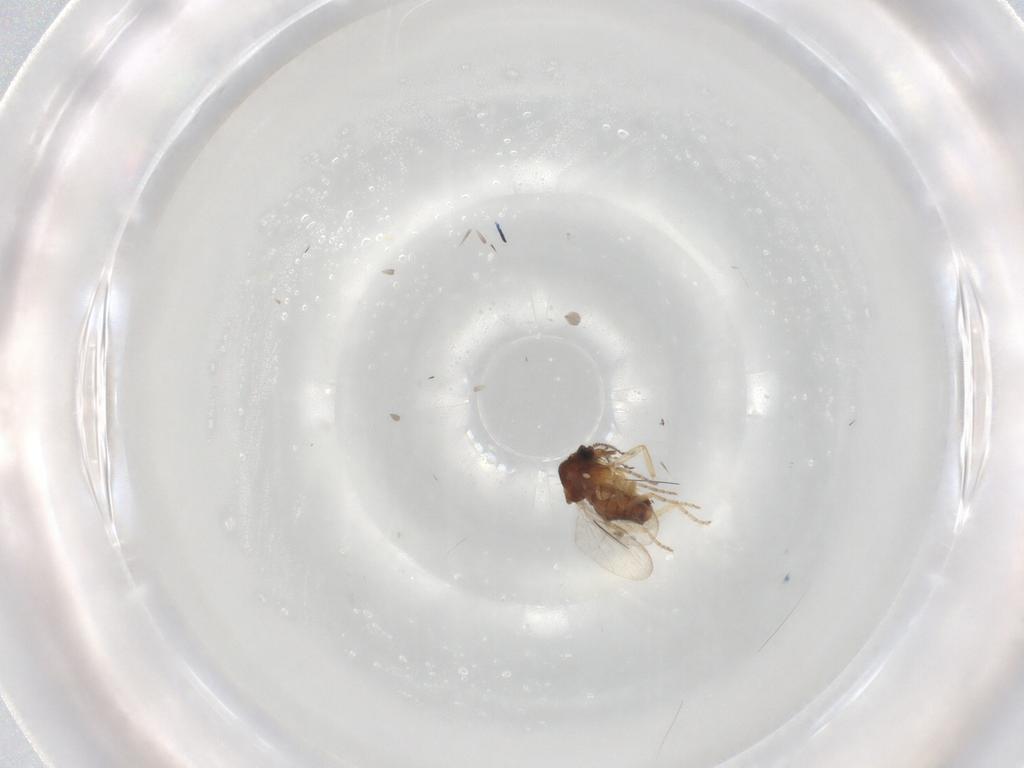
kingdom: Animalia
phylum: Arthropoda
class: Insecta
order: Diptera
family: Ceratopogonidae
